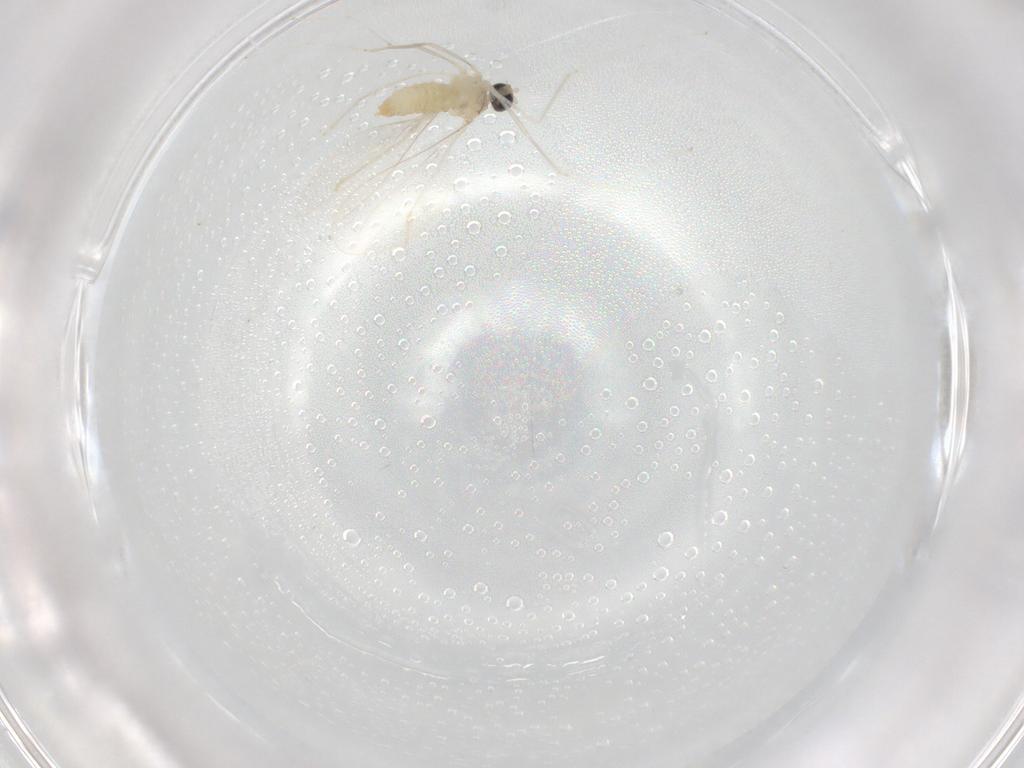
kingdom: Animalia
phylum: Arthropoda
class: Insecta
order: Diptera
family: Cecidomyiidae
